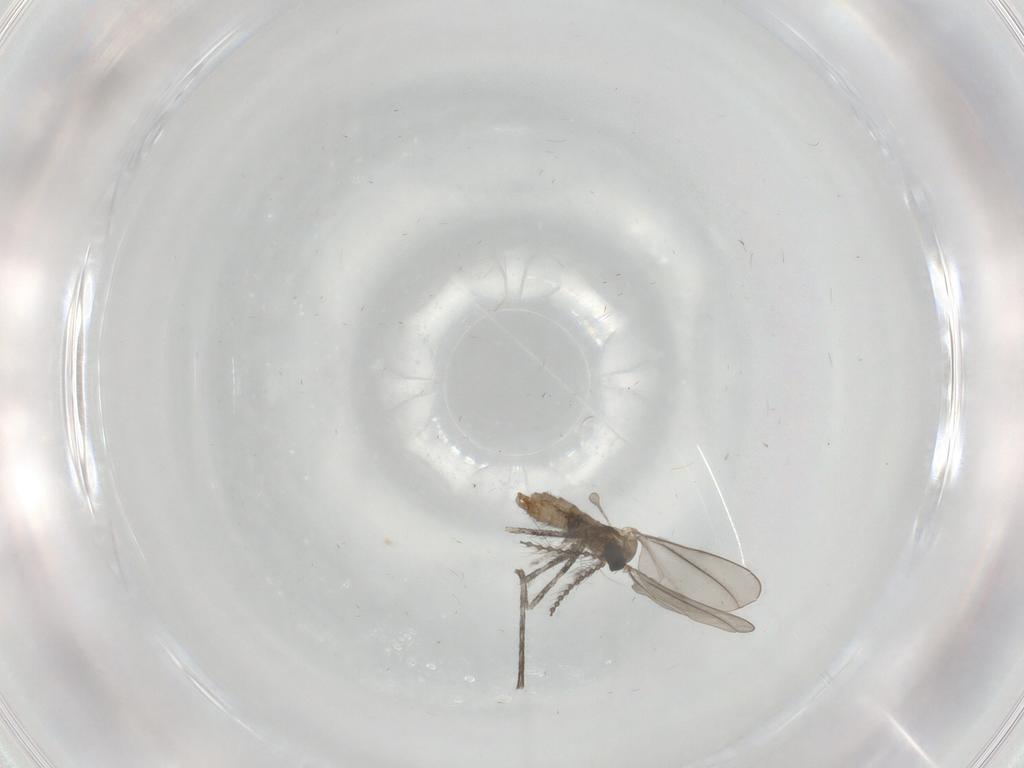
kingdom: Animalia
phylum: Arthropoda
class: Insecta
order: Diptera
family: Cecidomyiidae
